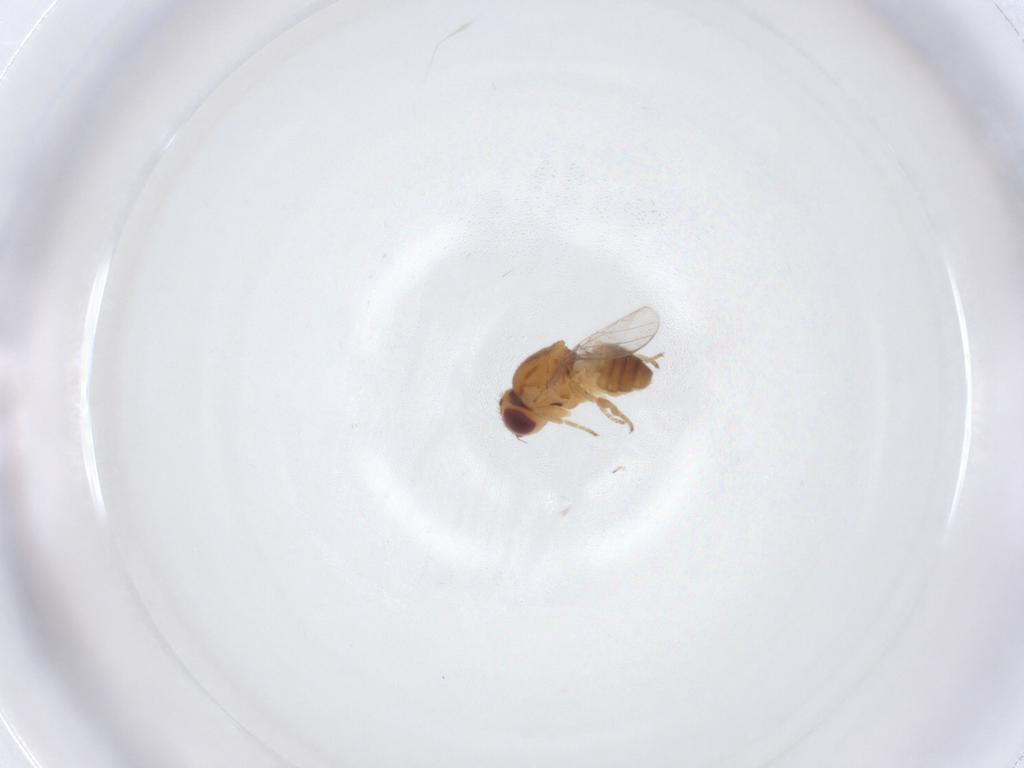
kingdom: Animalia
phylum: Arthropoda
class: Insecta
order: Diptera
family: Chloropidae
